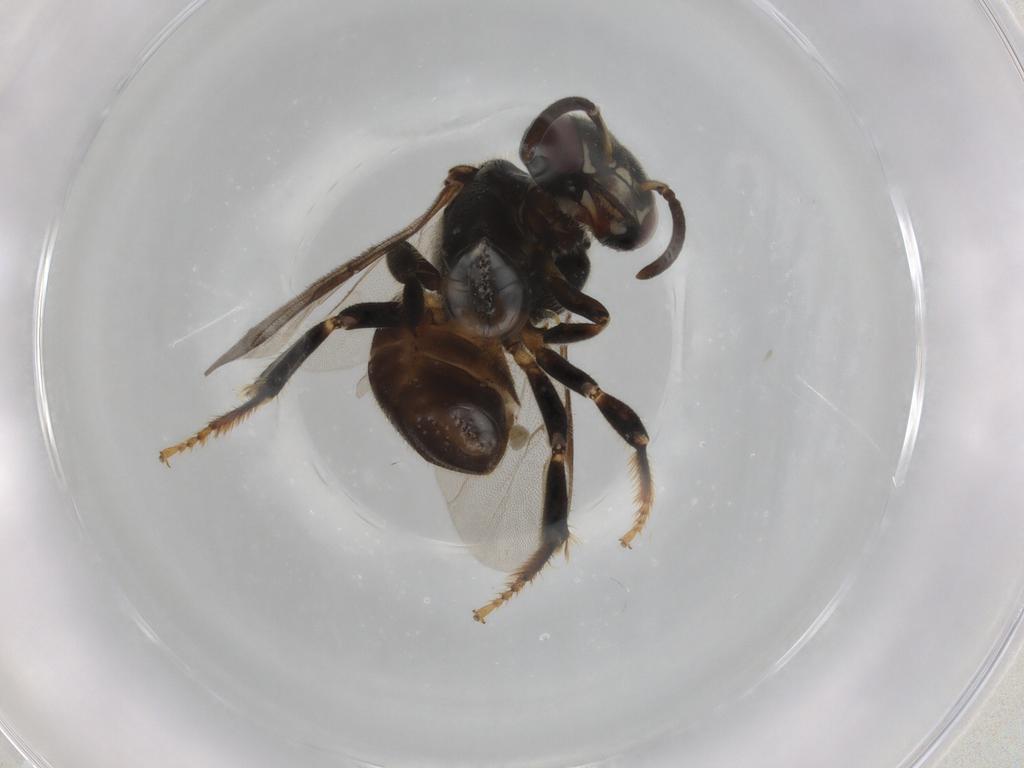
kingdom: Animalia
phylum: Arthropoda
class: Insecta
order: Hymenoptera
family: Apidae
